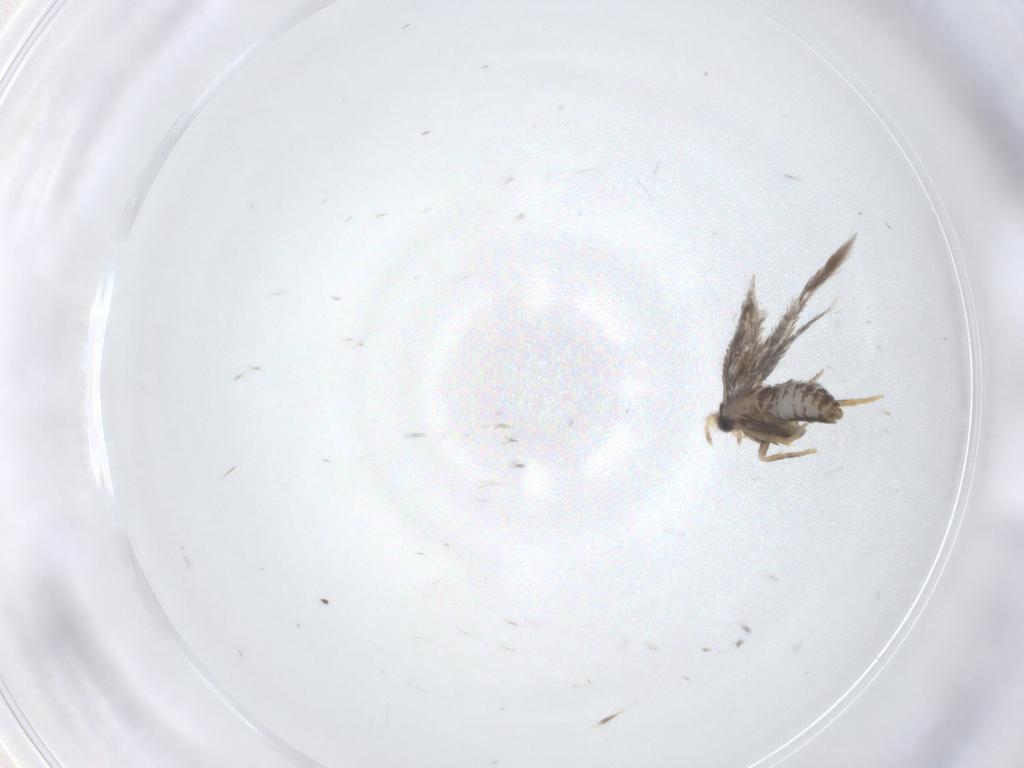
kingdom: Animalia
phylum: Arthropoda
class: Insecta
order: Lepidoptera
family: Nepticulidae
